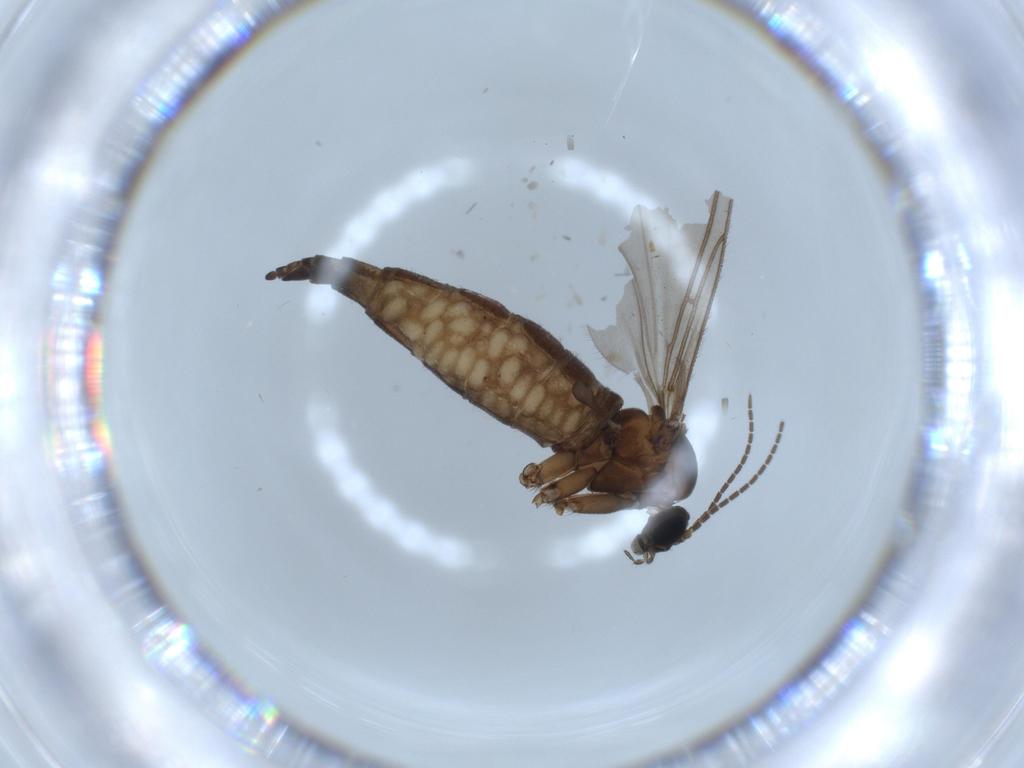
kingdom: Animalia
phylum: Arthropoda
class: Insecta
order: Diptera
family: Sciaridae
